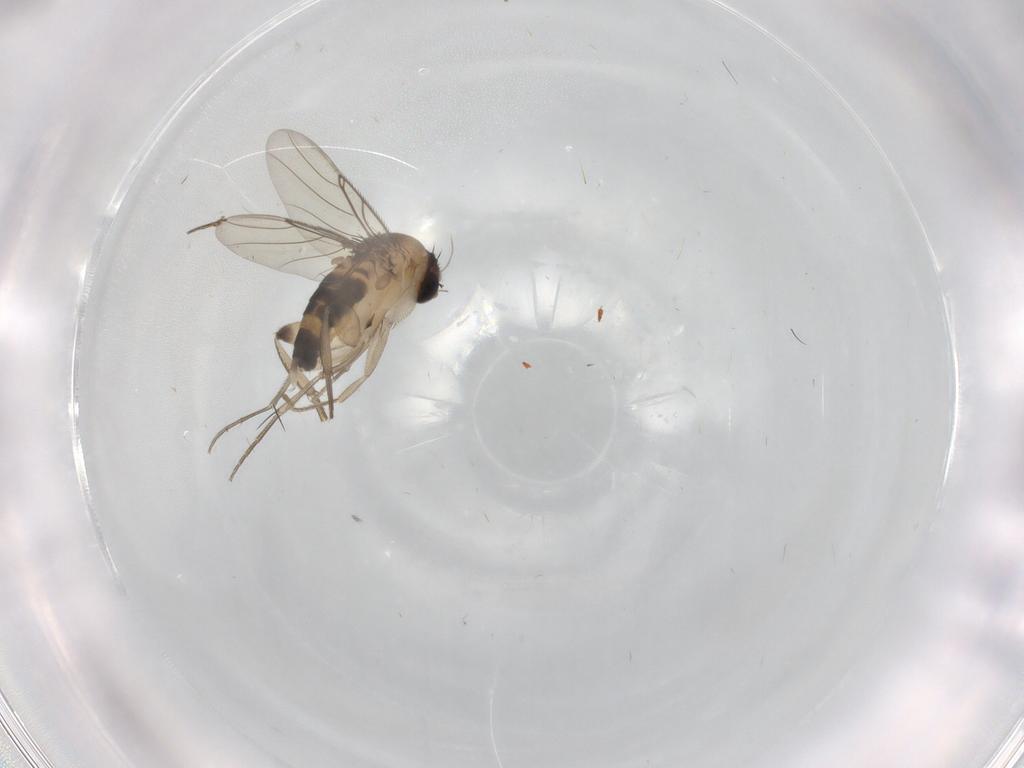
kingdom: Animalia
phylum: Arthropoda
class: Insecta
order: Diptera
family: Phoridae
